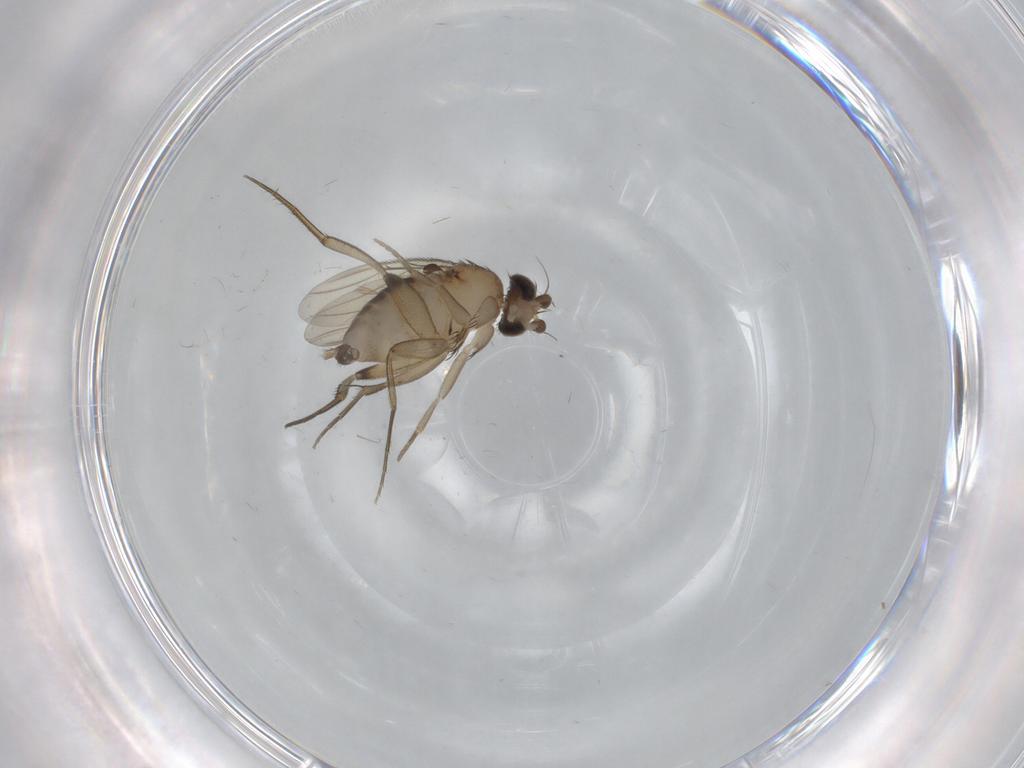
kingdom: Animalia
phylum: Arthropoda
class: Insecta
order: Diptera
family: Phoridae
